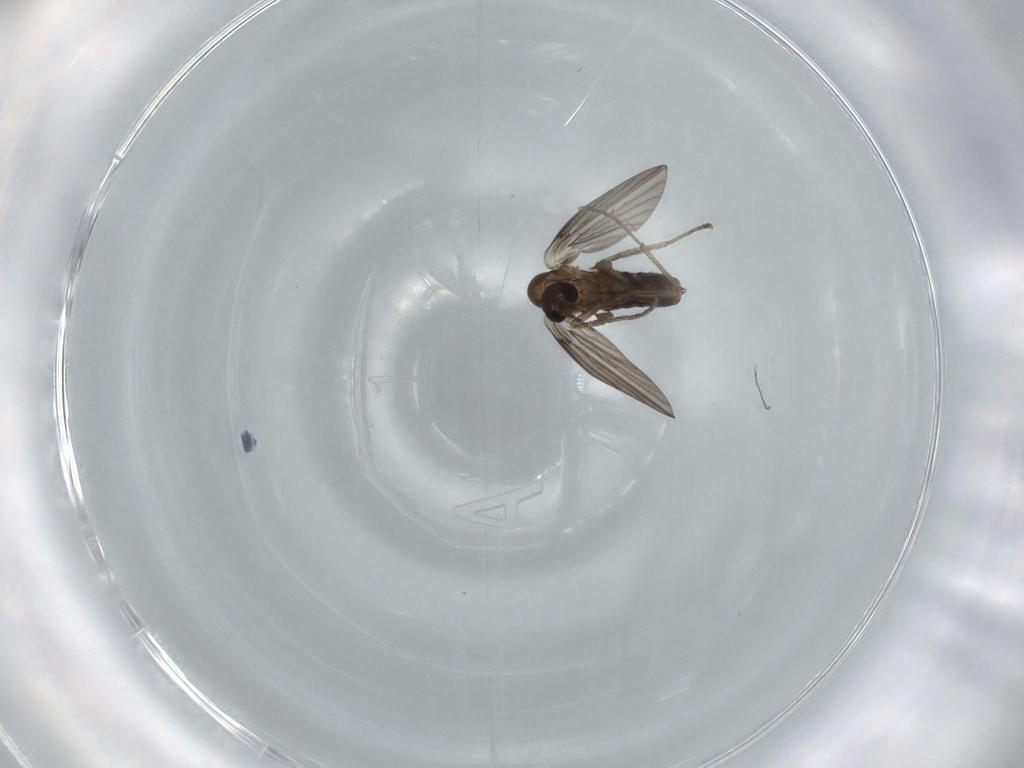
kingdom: Animalia
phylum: Arthropoda
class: Insecta
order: Diptera
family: Psychodidae
